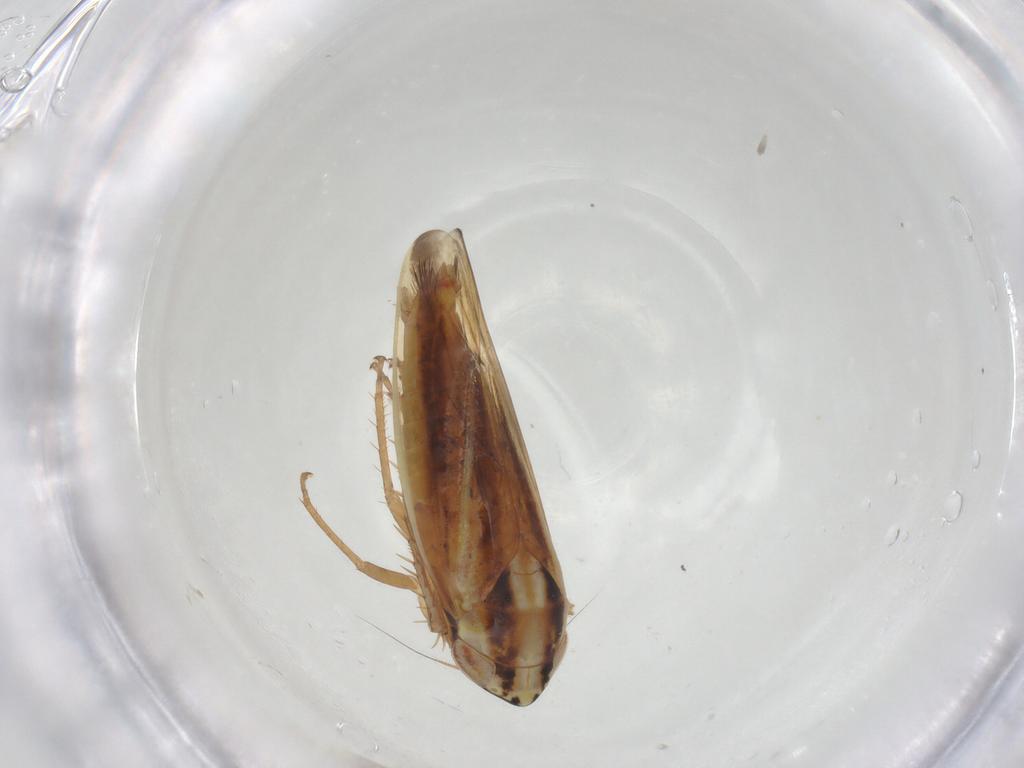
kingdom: Animalia
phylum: Arthropoda
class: Insecta
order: Hemiptera
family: Cicadellidae
